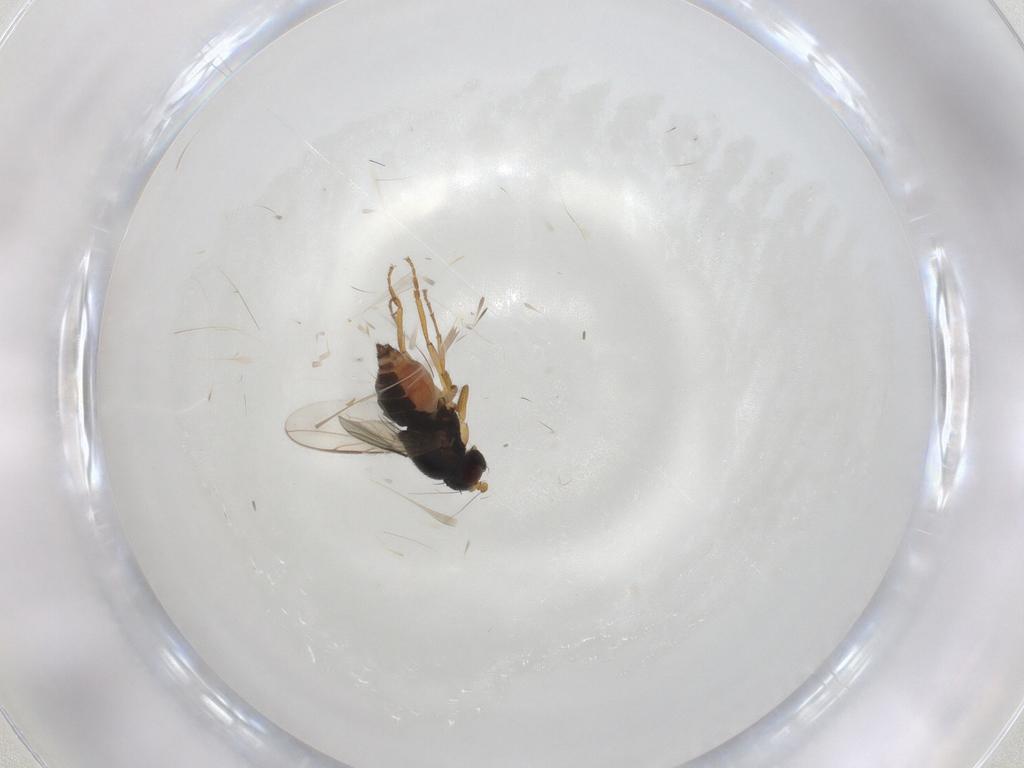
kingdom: Animalia
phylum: Arthropoda
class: Insecta
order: Diptera
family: Sphaeroceridae
